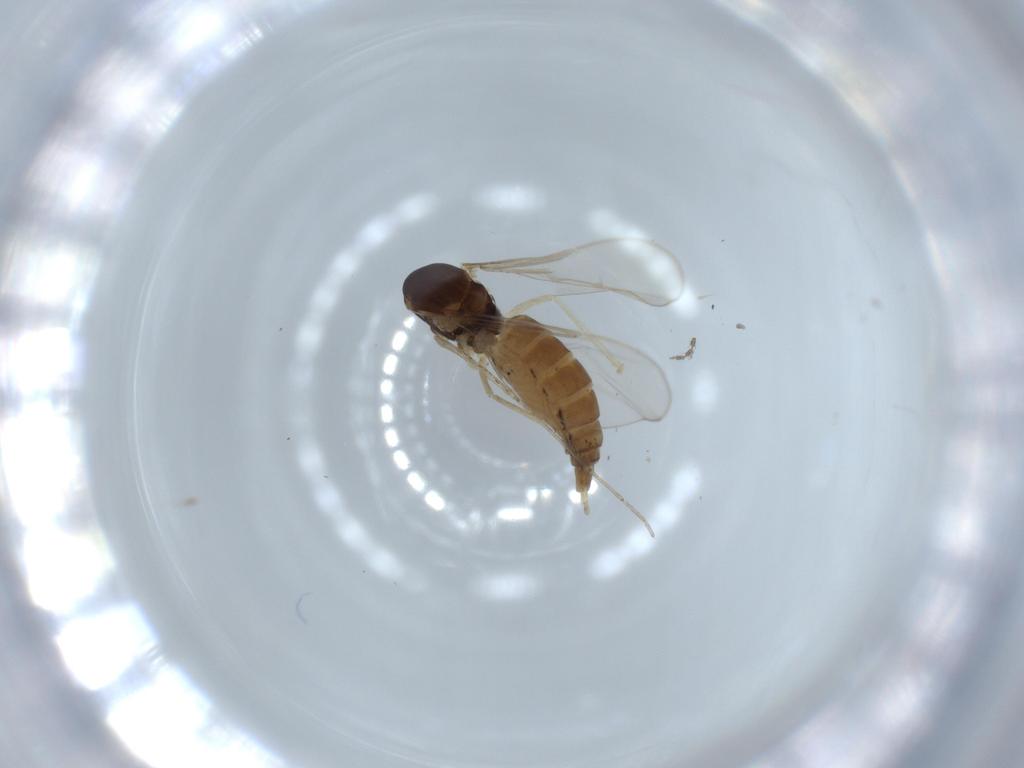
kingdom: Animalia
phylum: Arthropoda
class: Insecta
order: Diptera
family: Cecidomyiidae
